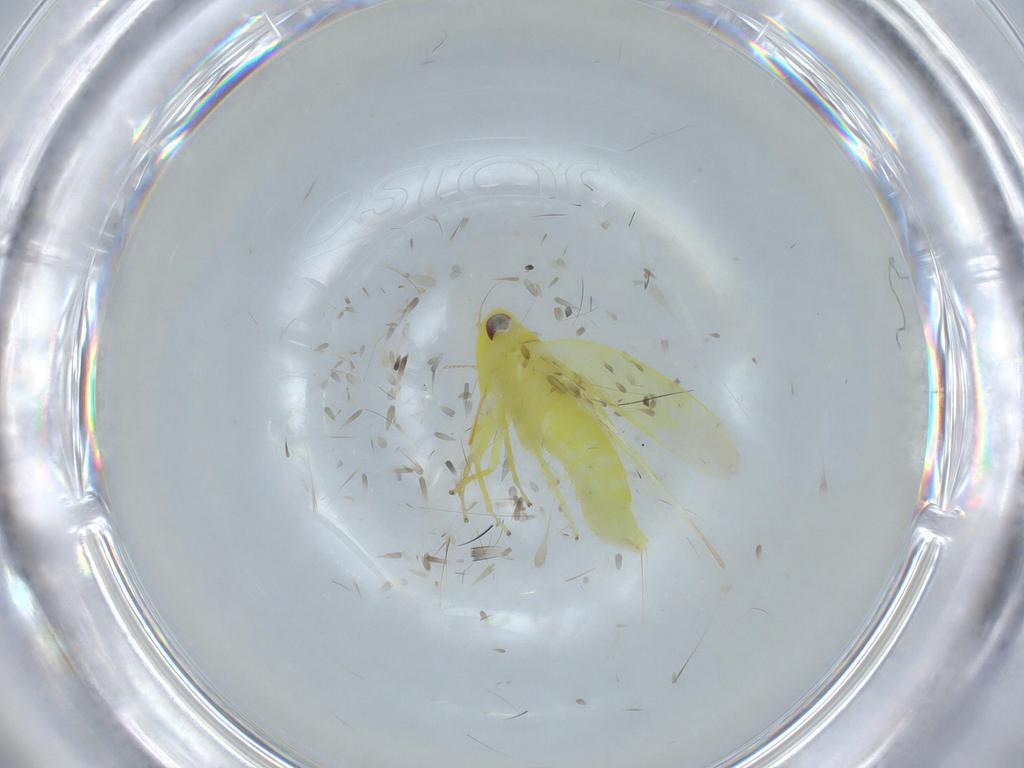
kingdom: Animalia
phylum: Arthropoda
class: Insecta
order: Hemiptera
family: Cicadellidae
